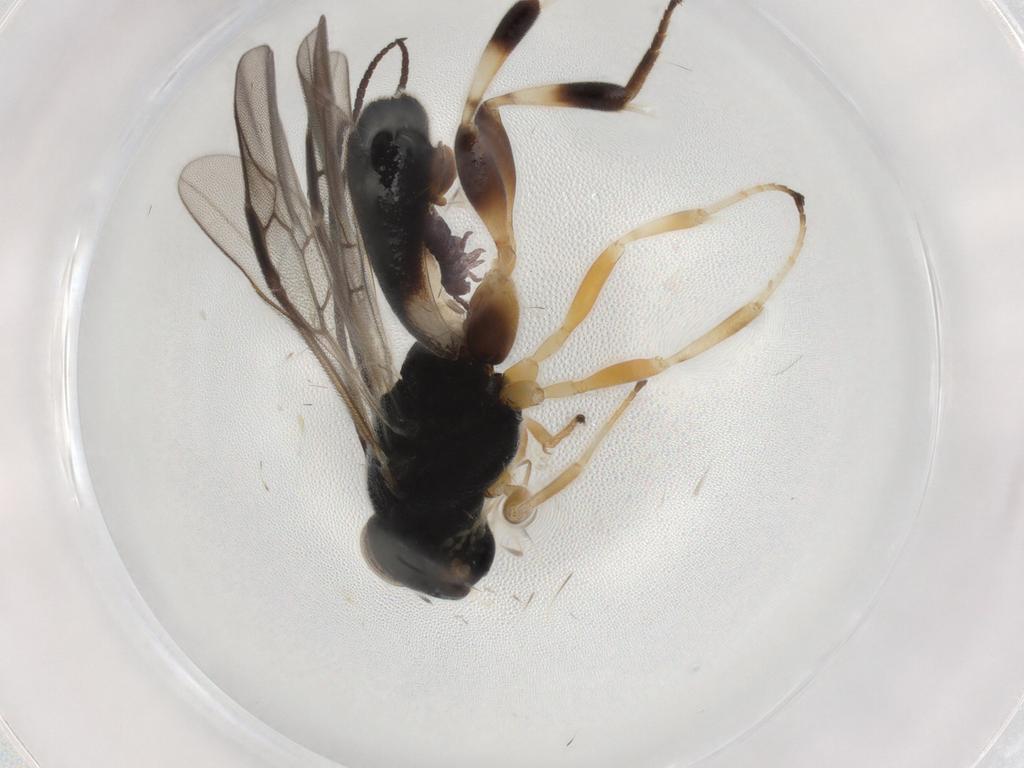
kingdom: Animalia
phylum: Arthropoda
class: Insecta
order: Hymenoptera
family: Braconidae
